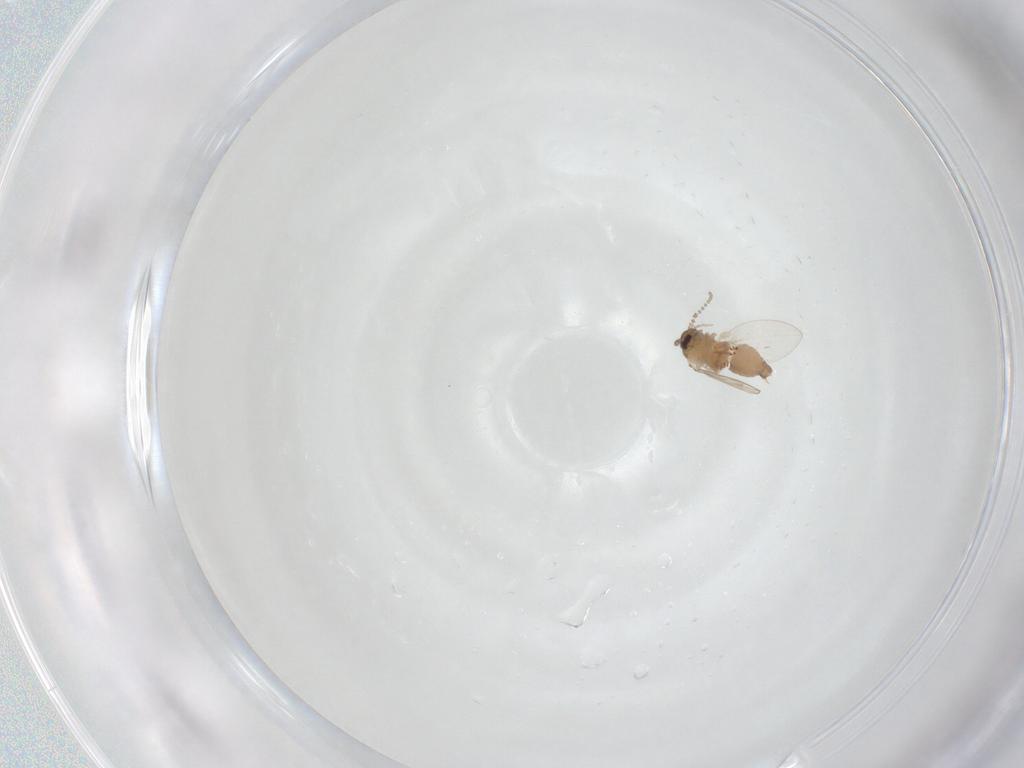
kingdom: Animalia
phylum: Arthropoda
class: Insecta
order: Diptera
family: Psychodidae
